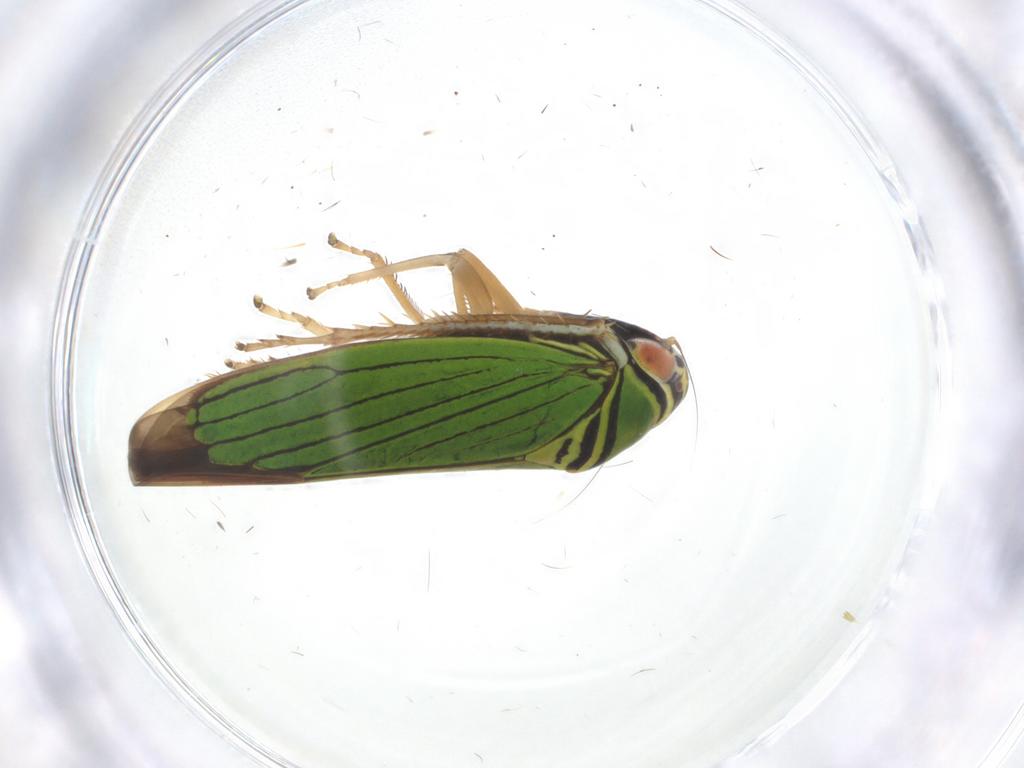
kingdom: Animalia
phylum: Arthropoda
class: Insecta
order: Hemiptera
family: Cicadellidae
